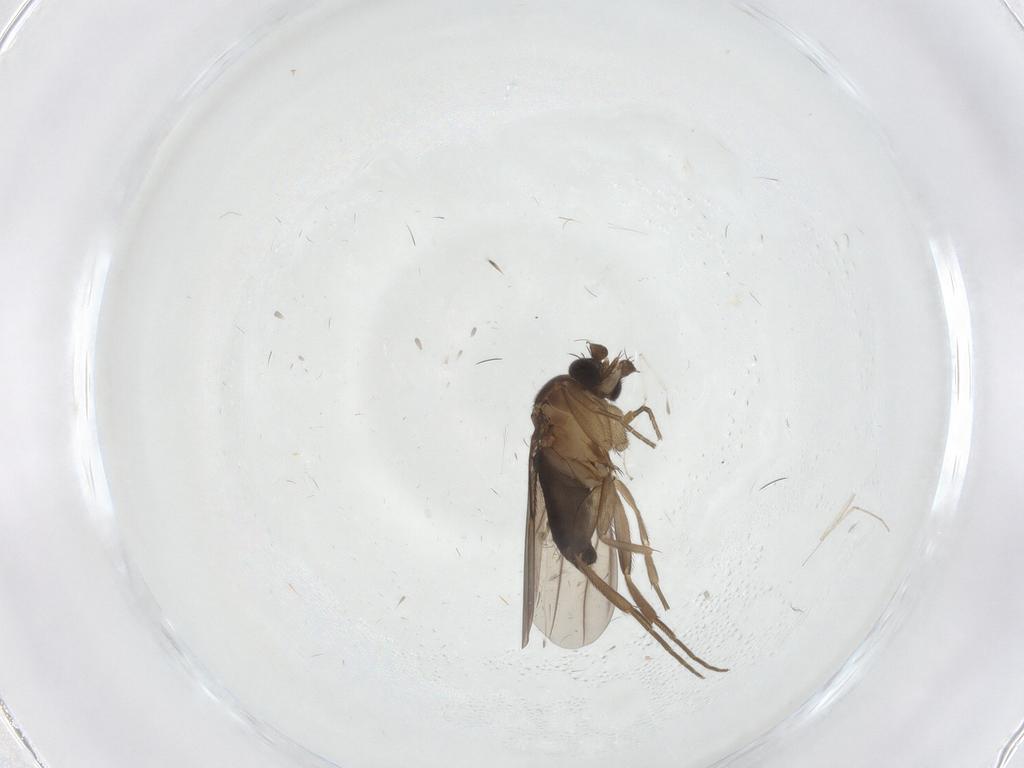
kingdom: Animalia
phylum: Arthropoda
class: Insecta
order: Diptera
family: Phoridae
